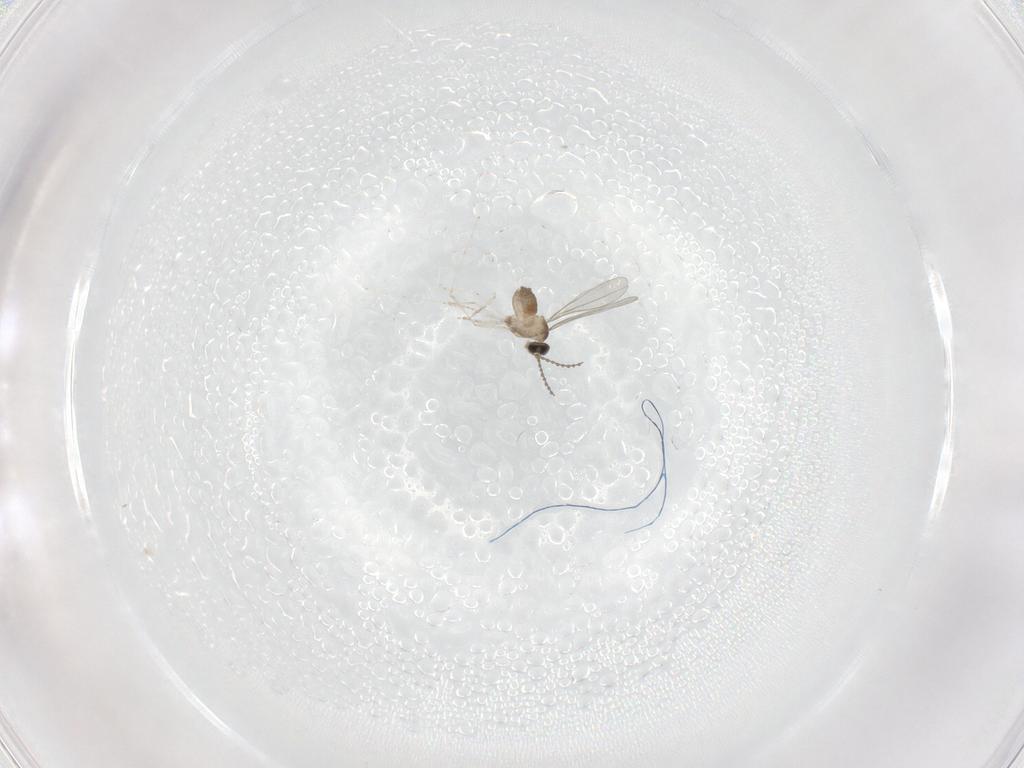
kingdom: Animalia
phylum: Arthropoda
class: Insecta
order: Diptera
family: Cecidomyiidae
